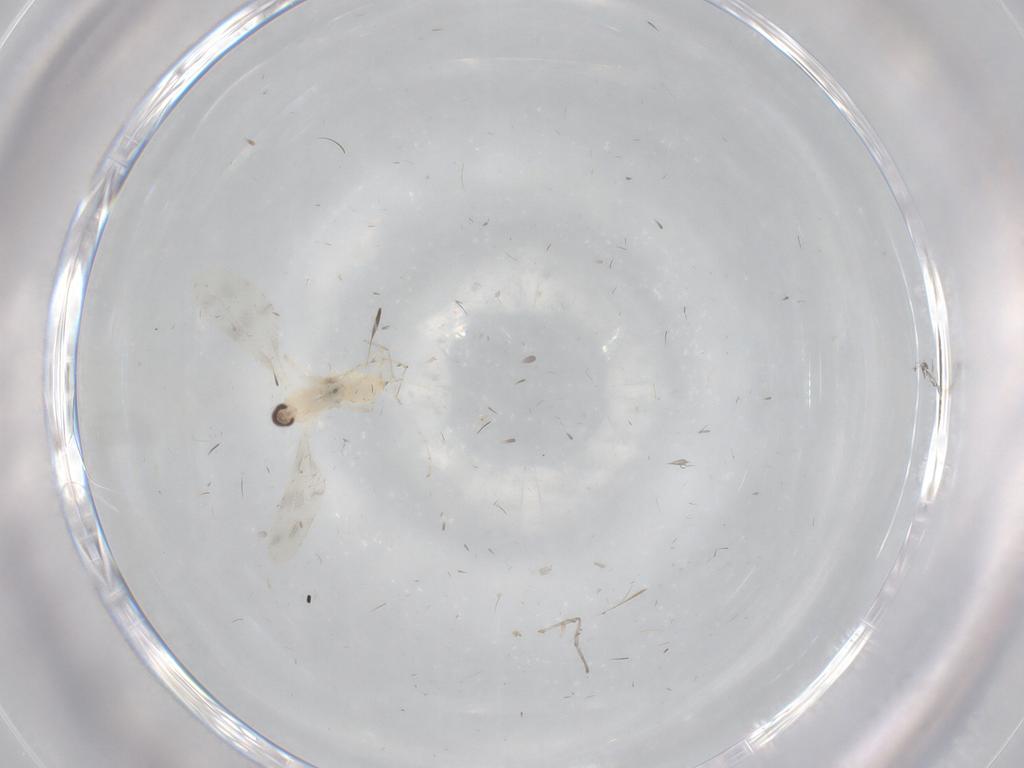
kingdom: Animalia
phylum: Arthropoda
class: Insecta
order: Diptera
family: Cecidomyiidae
